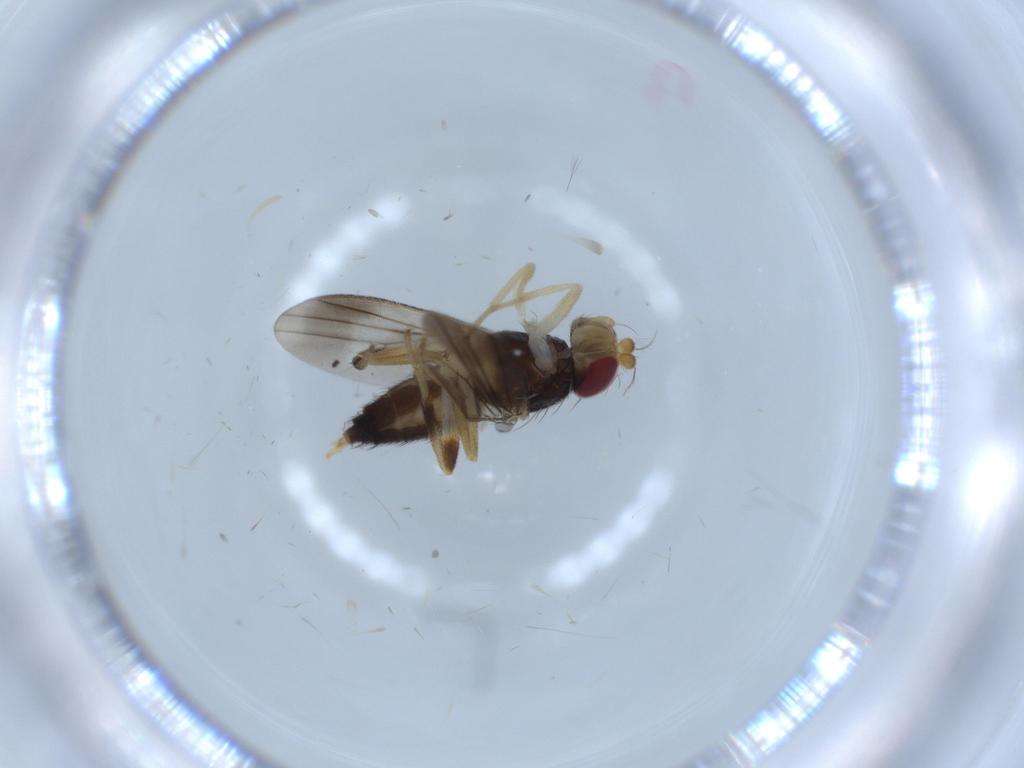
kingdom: Animalia
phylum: Arthropoda
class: Insecta
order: Diptera
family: Clusiidae
